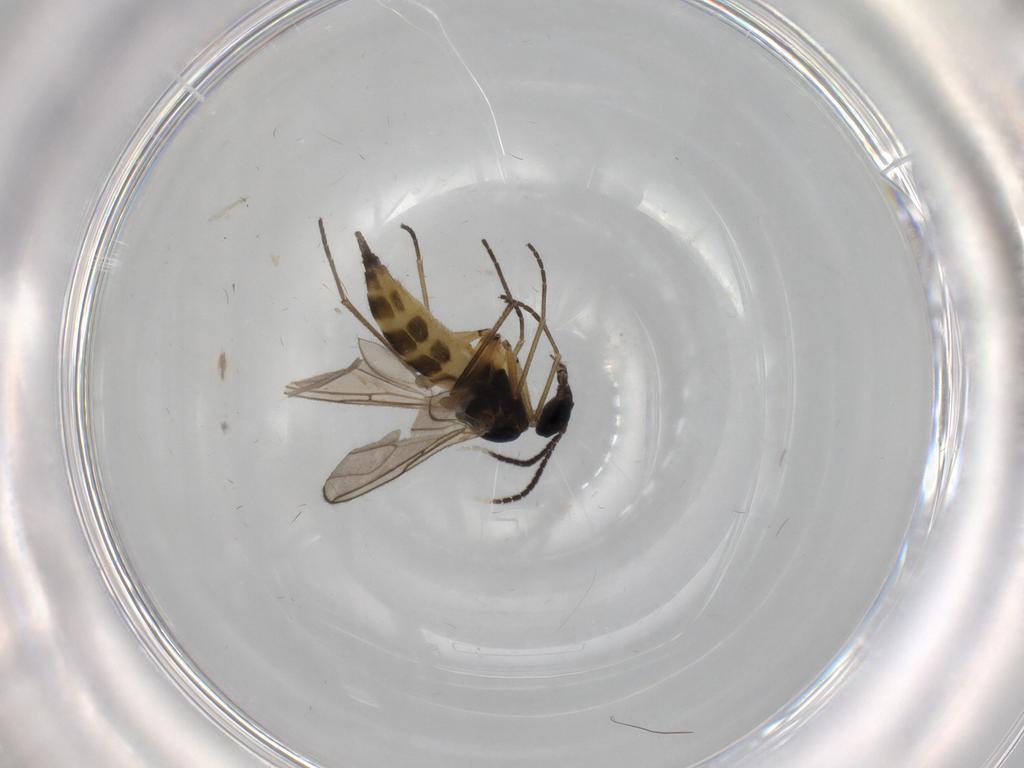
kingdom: Animalia
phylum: Arthropoda
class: Insecta
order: Diptera
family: Sciaridae
